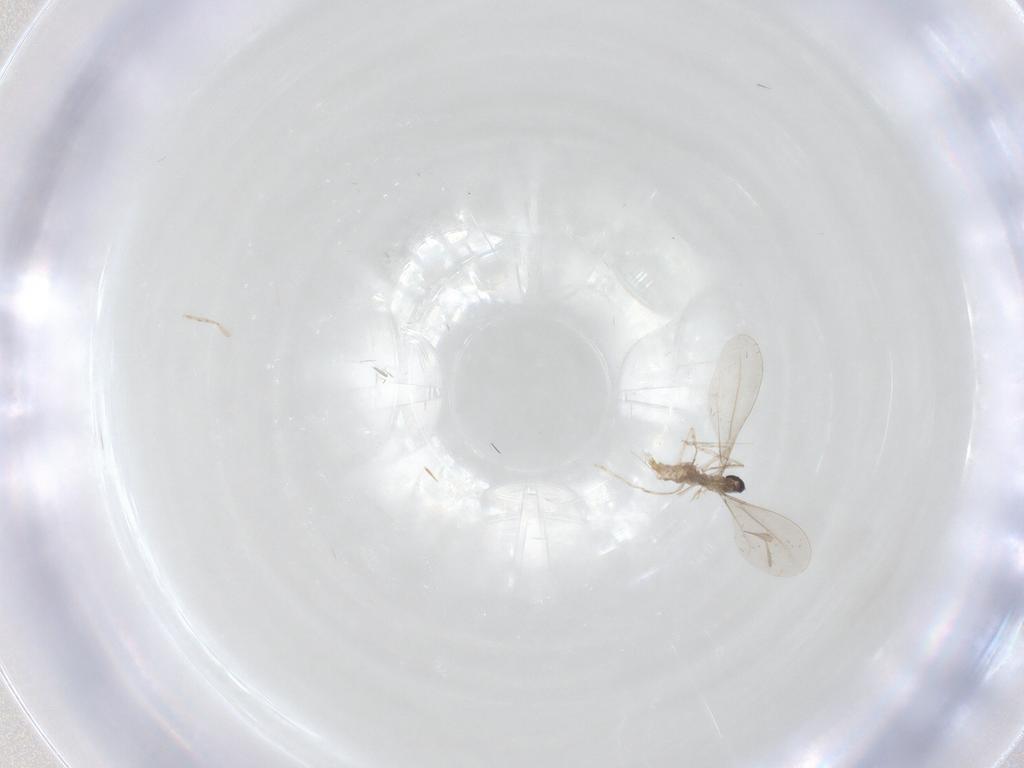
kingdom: Animalia
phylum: Arthropoda
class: Insecta
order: Diptera
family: Cecidomyiidae
